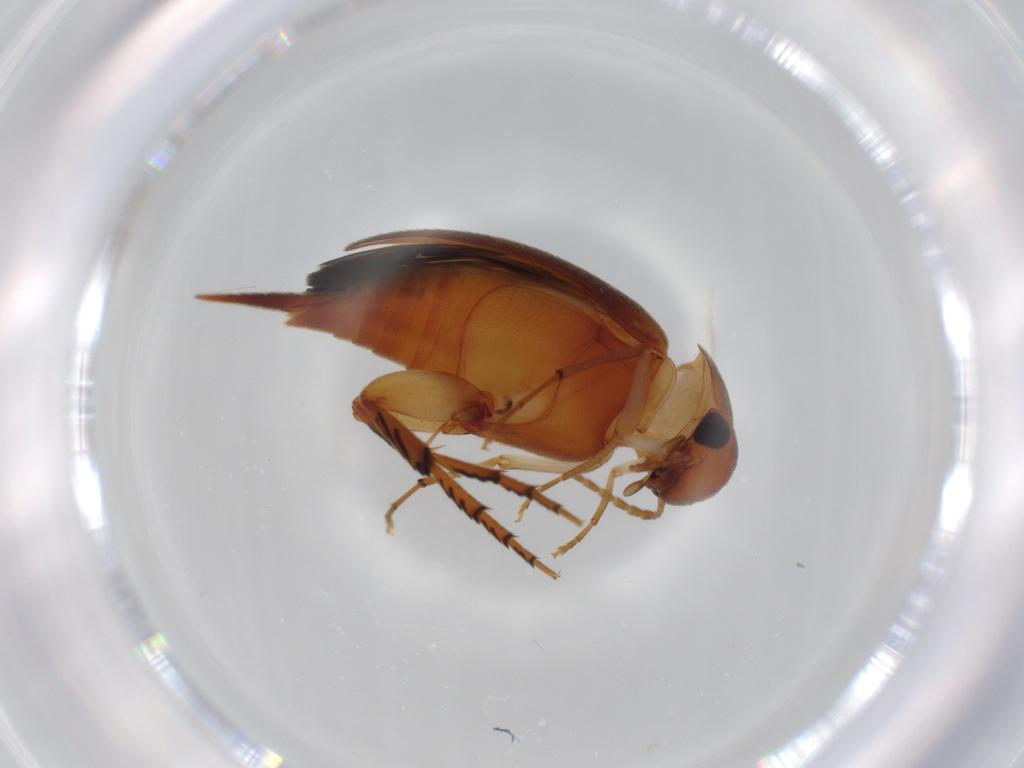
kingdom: Animalia
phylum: Arthropoda
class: Insecta
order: Coleoptera
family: Mordellidae
